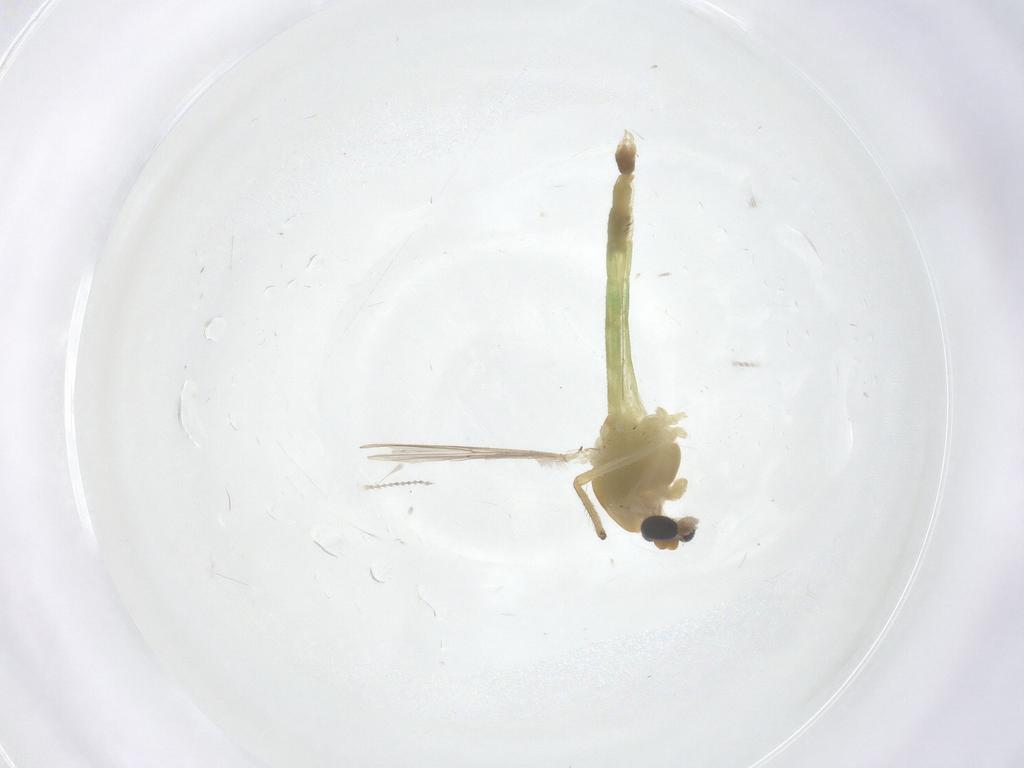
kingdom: Animalia
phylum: Arthropoda
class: Insecta
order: Diptera
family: Chironomidae
